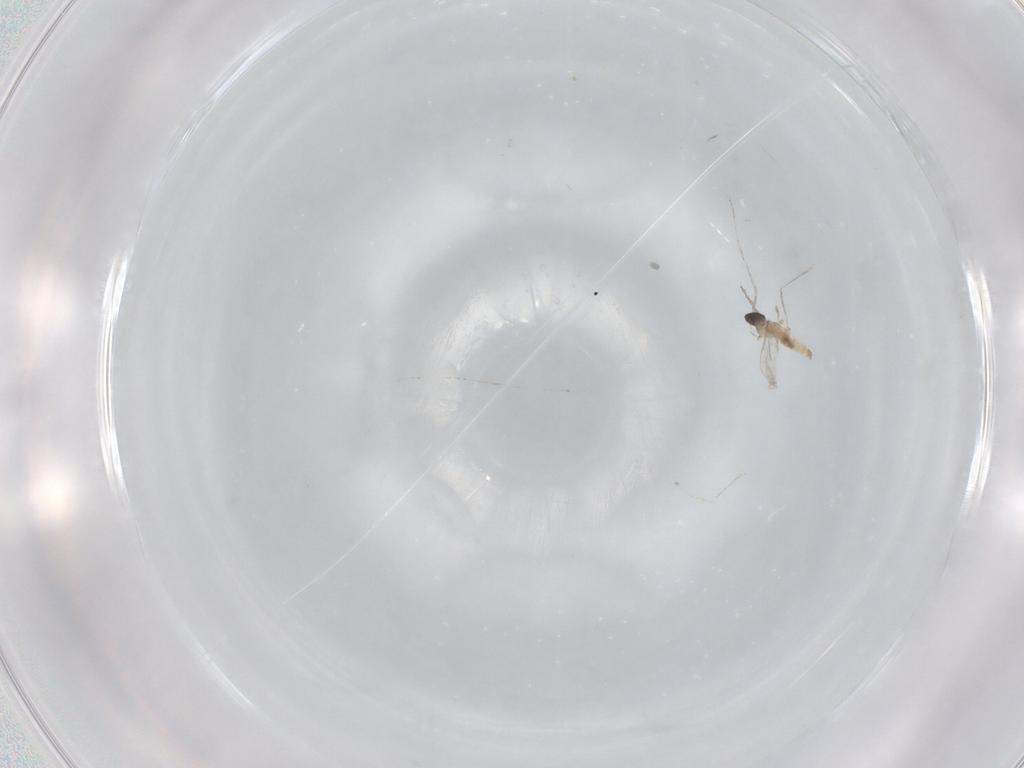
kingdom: Animalia
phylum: Arthropoda
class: Insecta
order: Diptera
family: Cecidomyiidae
